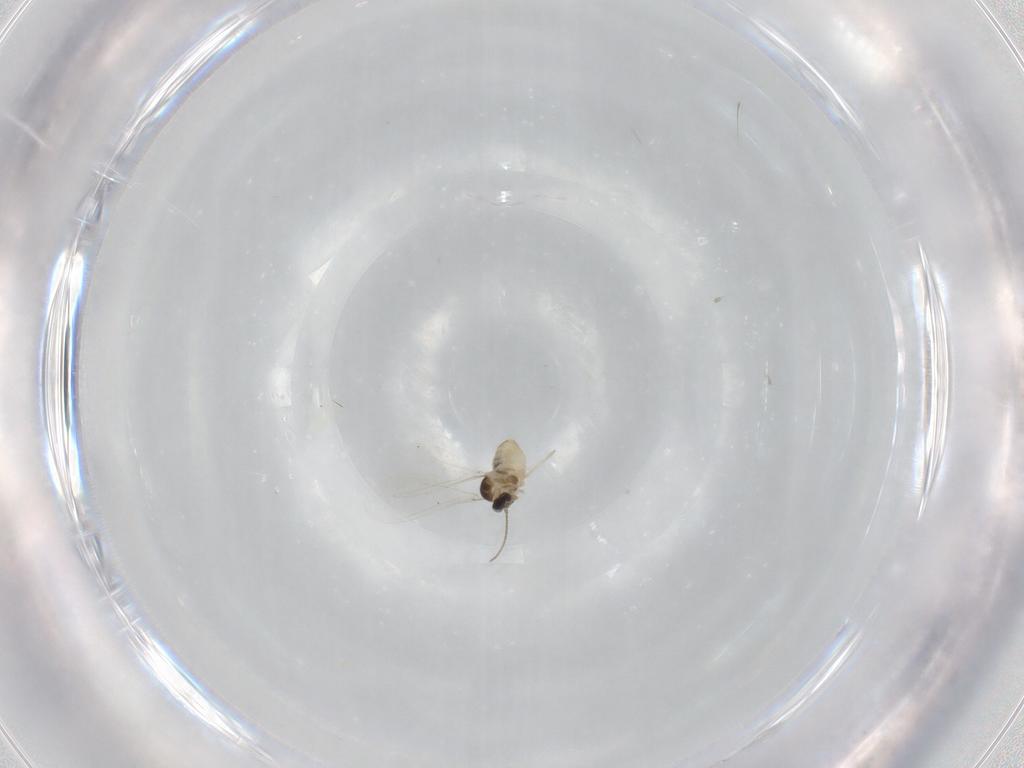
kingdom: Animalia
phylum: Arthropoda
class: Insecta
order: Diptera
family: Cecidomyiidae
